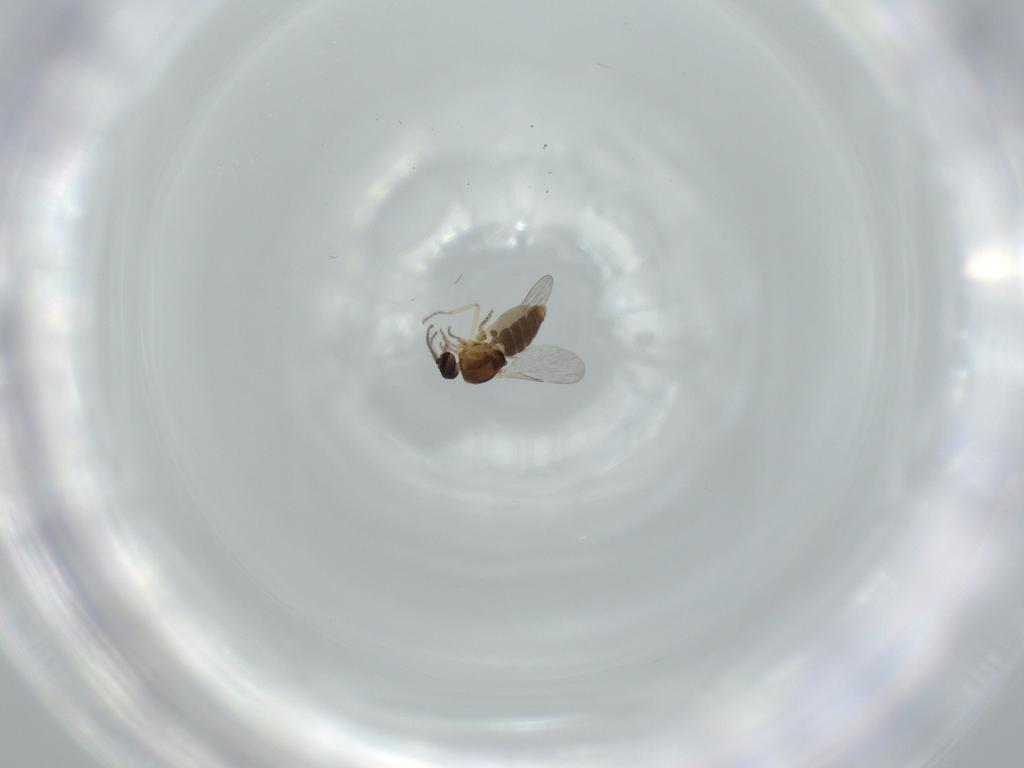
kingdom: Animalia
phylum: Arthropoda
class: Insecta
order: Diptera
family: Ceratopogonidae
